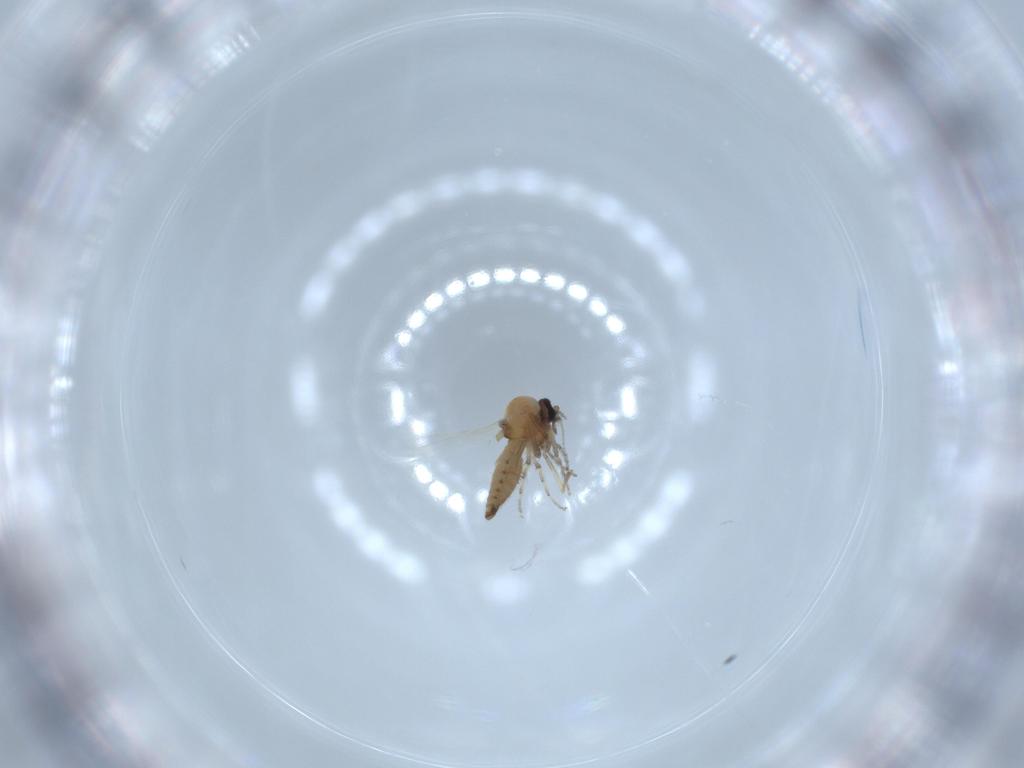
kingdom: Animalia
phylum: Arthropoda
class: Insecta
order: Diptera
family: Ceratopogonidae
